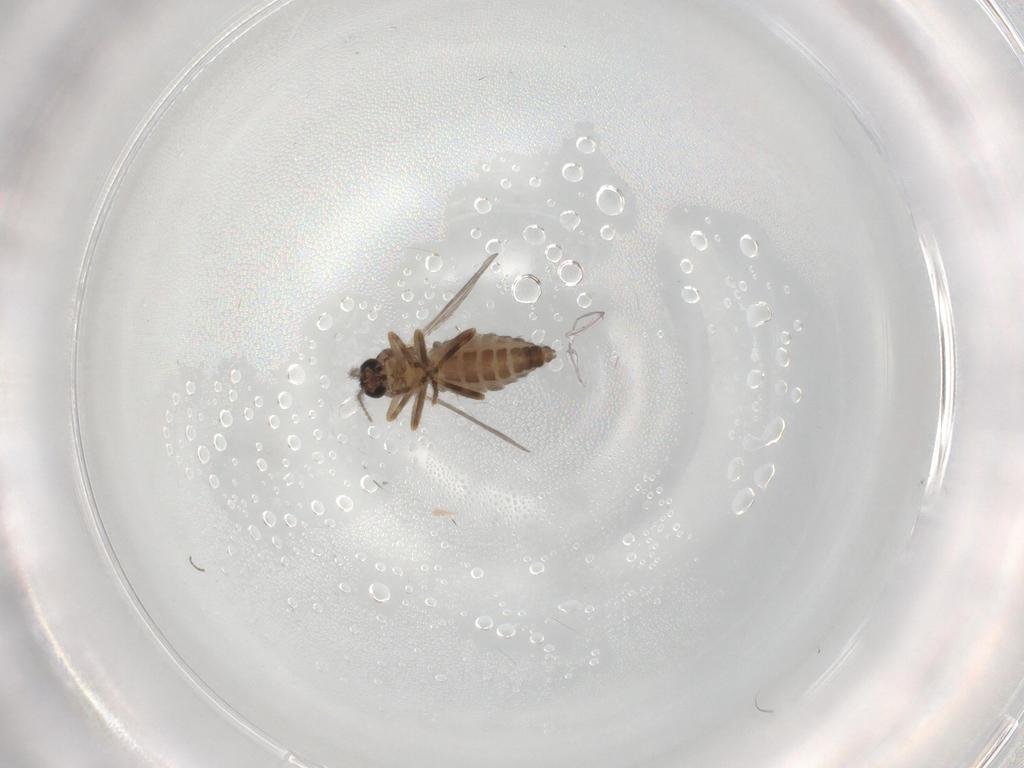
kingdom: Animalia
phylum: Arthropoda
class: Insecta
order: Diptera
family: Ceratopogonidae
